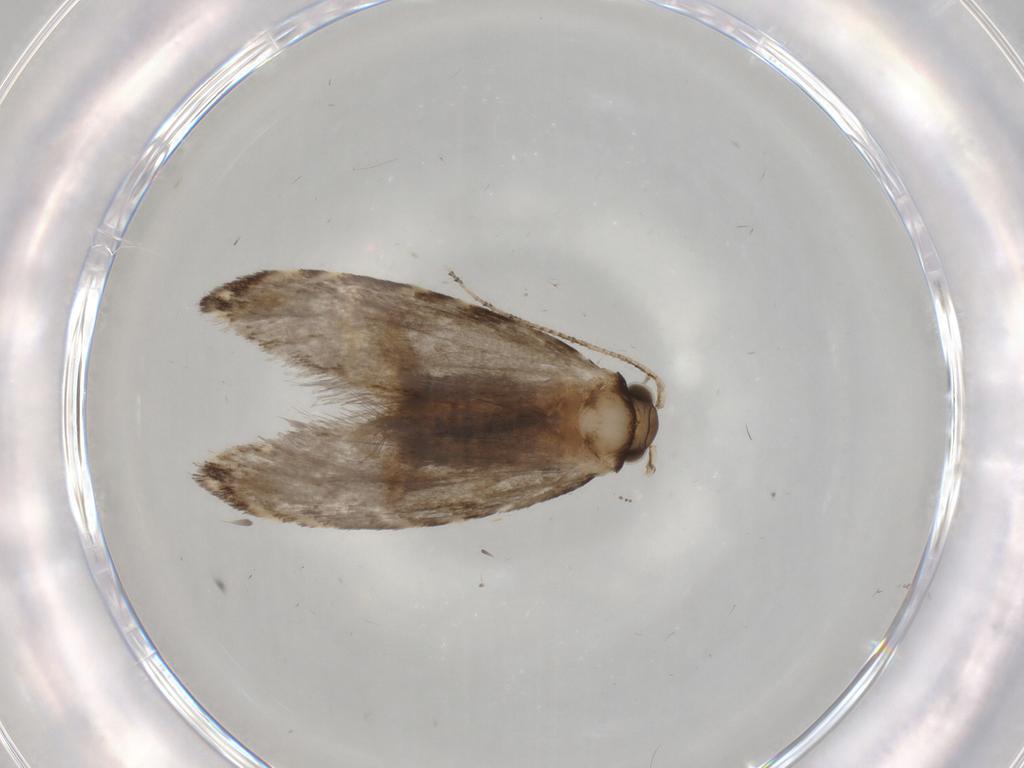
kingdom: Animalia
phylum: Arthropoda
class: Insecta
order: Lepidoptera
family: Tineidae
